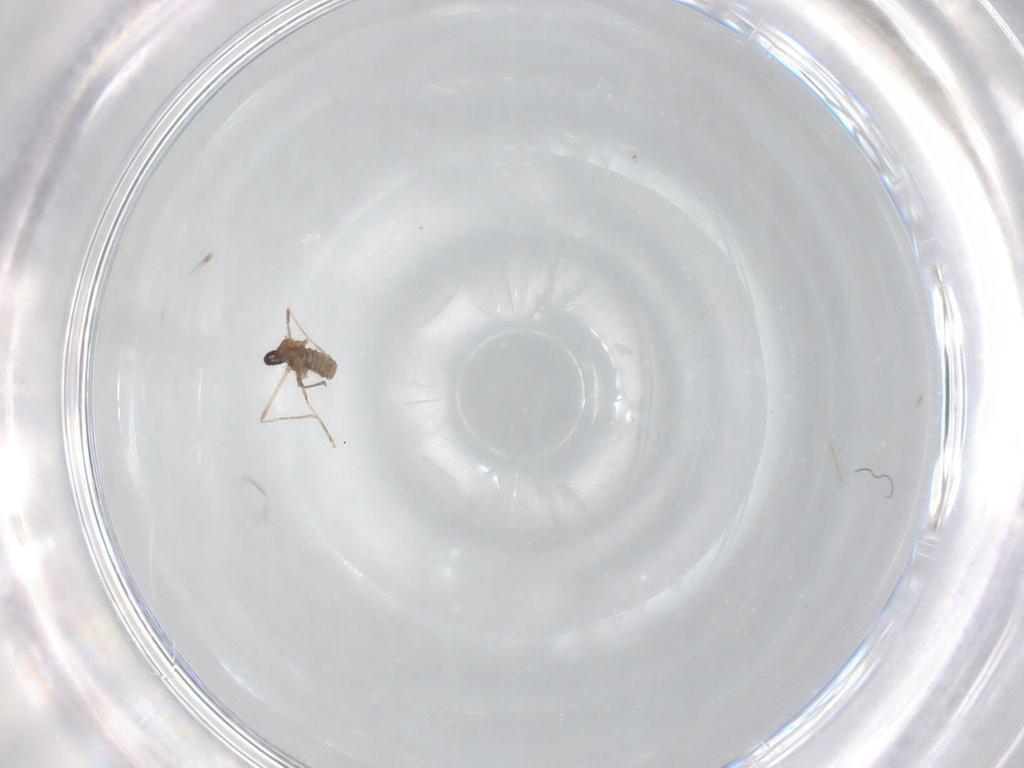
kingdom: Animalia
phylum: Arthropoda
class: Insecta
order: Diptera
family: Cecidomyiidae
